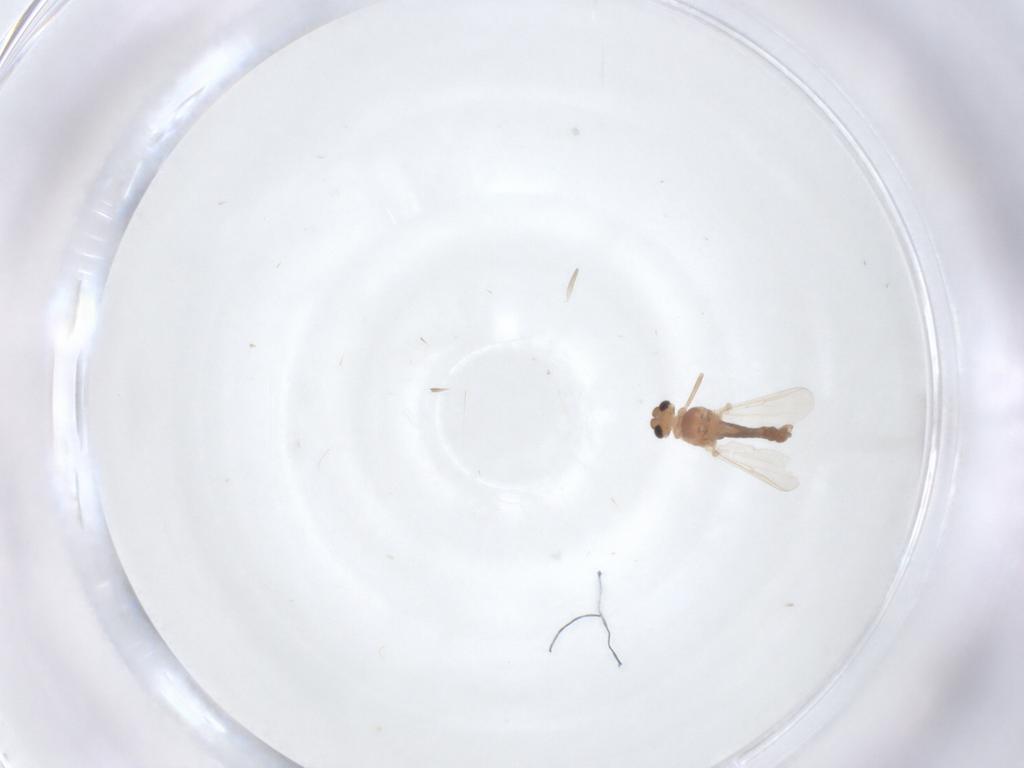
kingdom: Animalia
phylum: Arthropoda
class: Insecta
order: Diptera
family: Chironomidae
